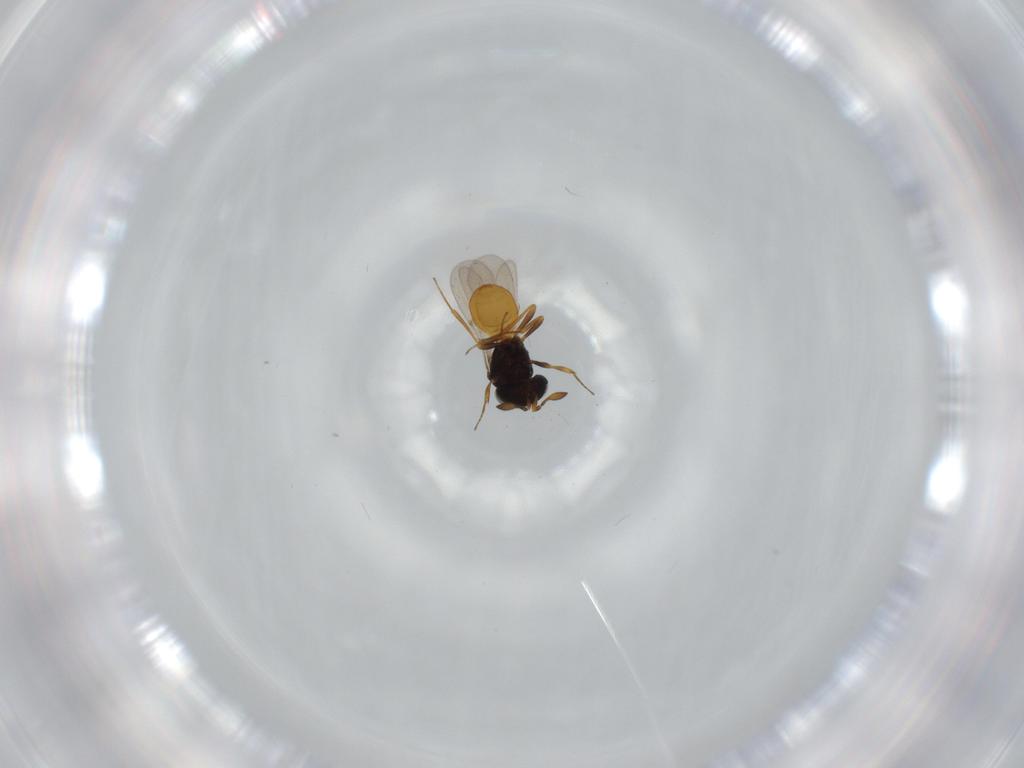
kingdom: Animalia
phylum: Arthropoda
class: Insecta
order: Hymenoptera
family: Scelionidae
